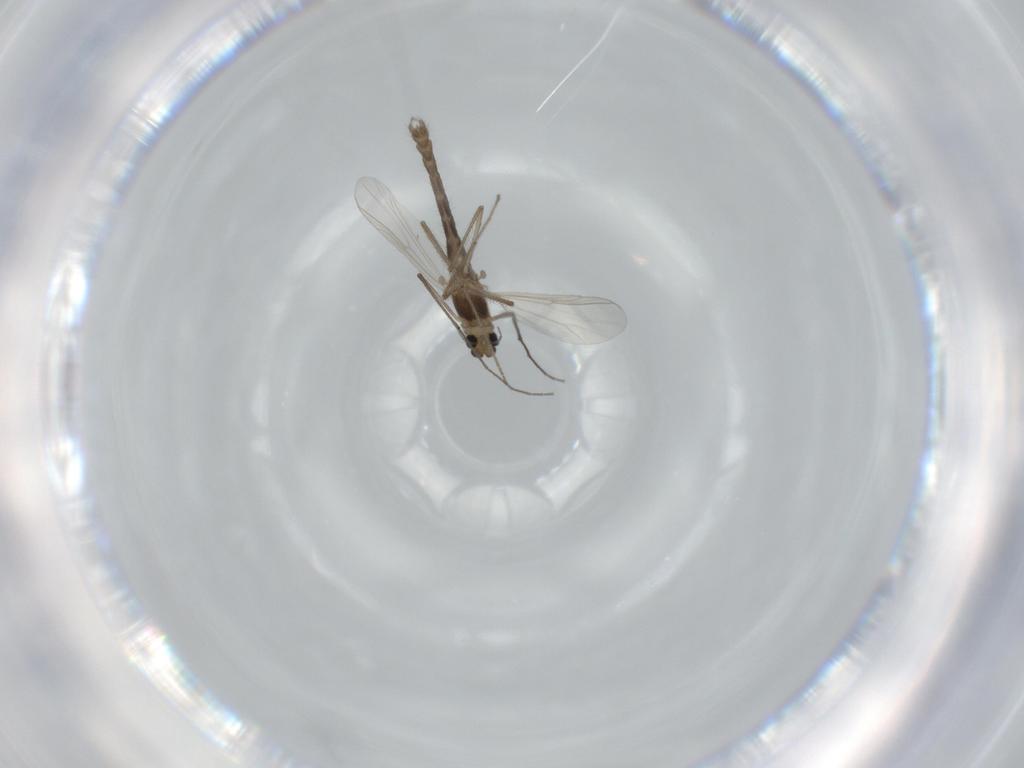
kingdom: Animalia
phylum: Arthropoda
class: Insecta
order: Diptera
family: Chironomidae
